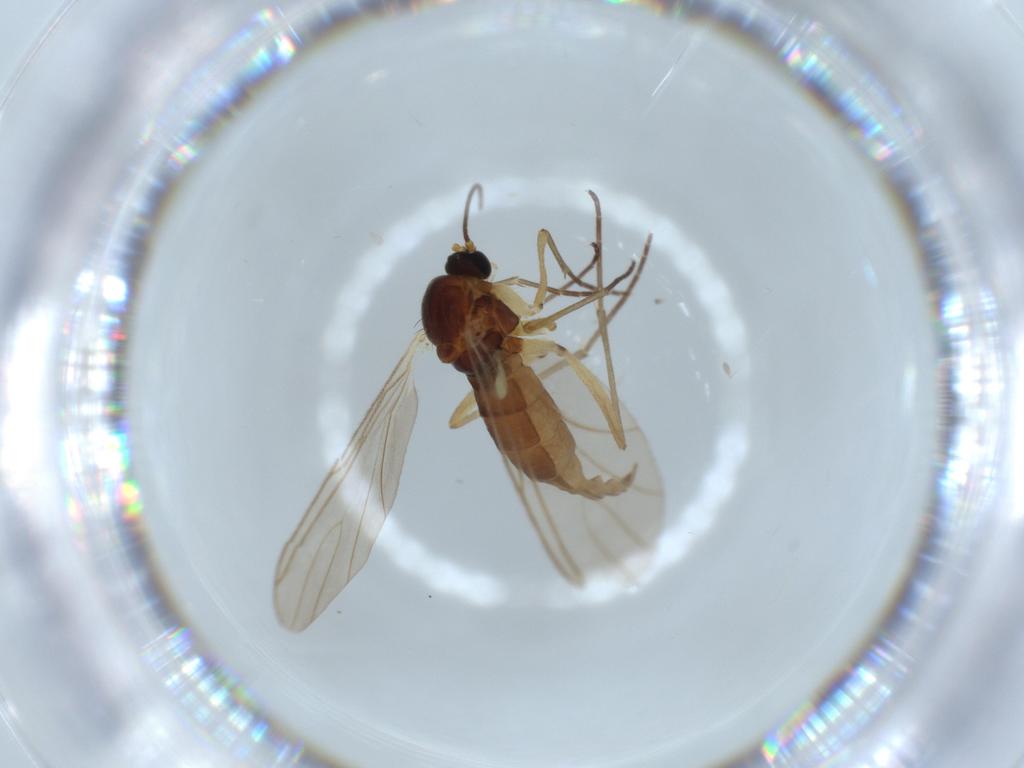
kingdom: Animalia
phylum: Arthropoda
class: Insecta
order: Diptera
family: Sciaridae
